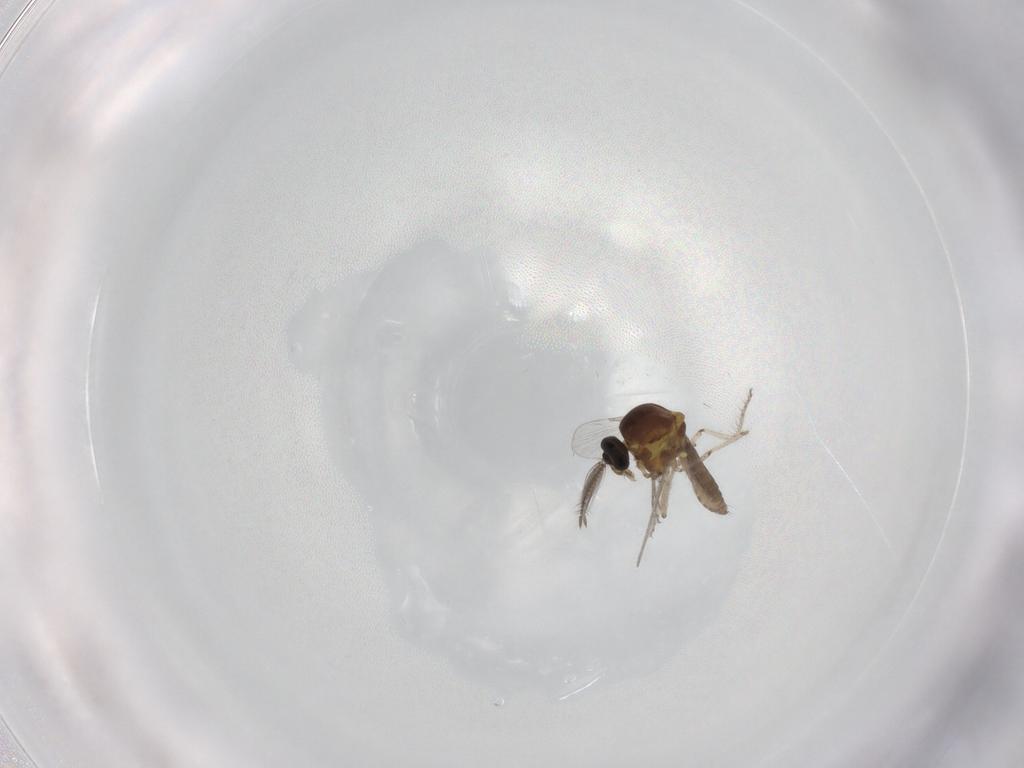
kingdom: Animalia
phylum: Arthropoda
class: Insecta
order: Diptera
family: Ceratopogonidae
